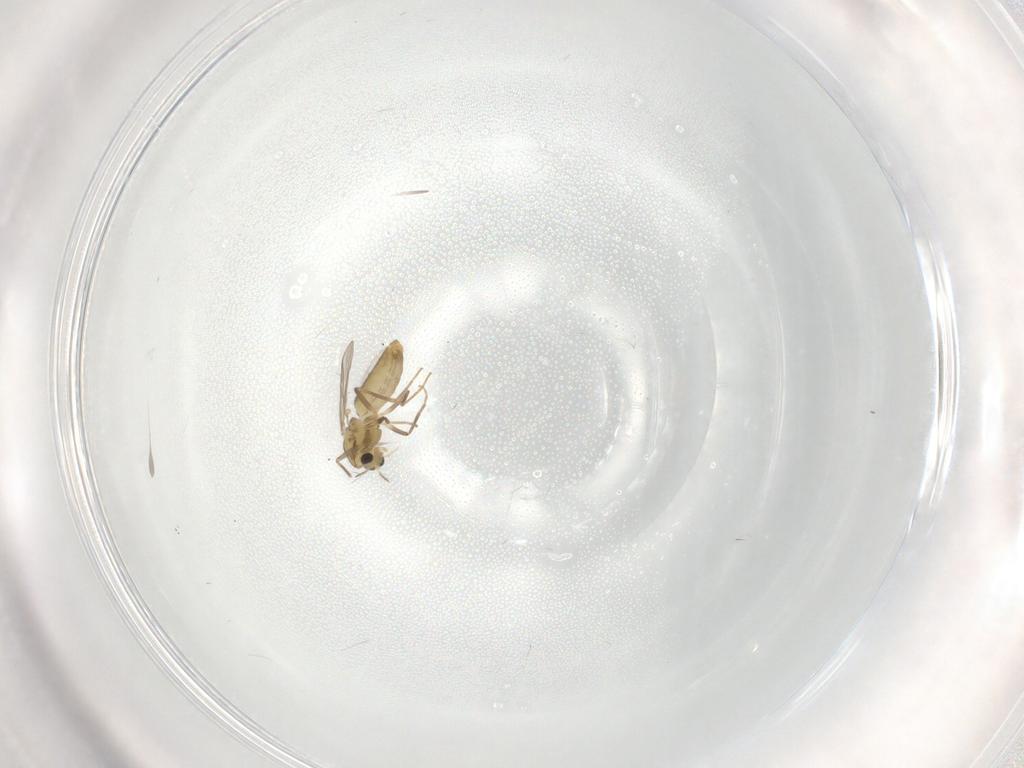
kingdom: Animalia
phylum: Arthropoda
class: Insecta
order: Diptera
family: Chironomidae
